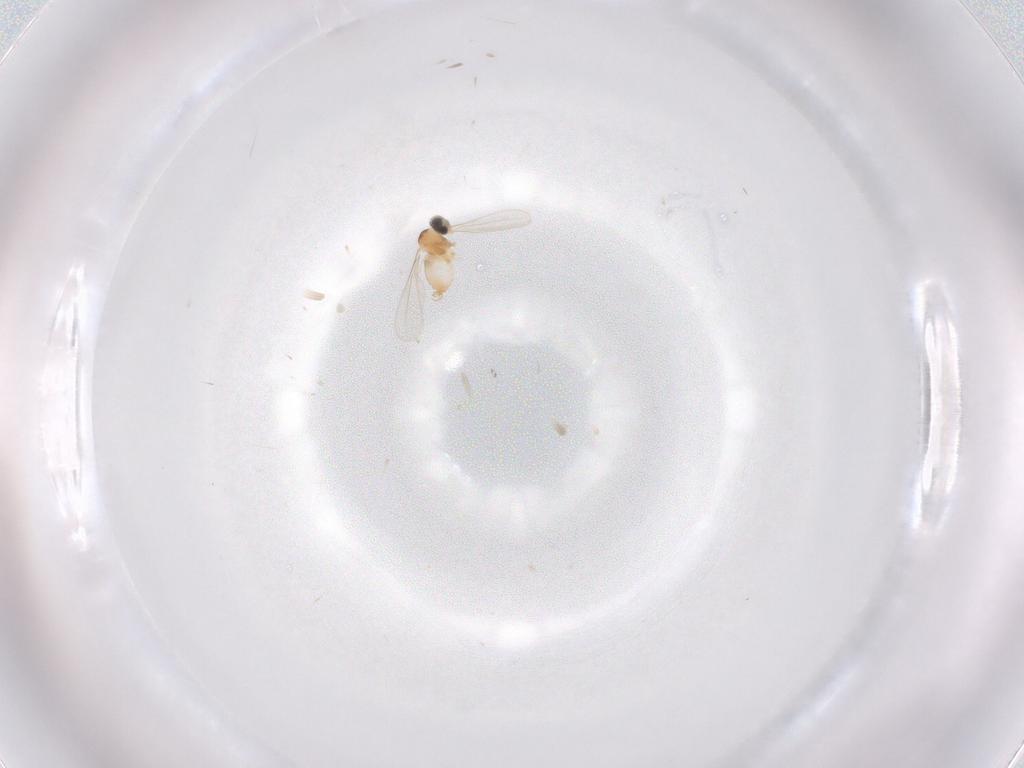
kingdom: Animalia
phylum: Arthropoda
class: Insecta
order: Diptera
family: Cecidomyiidae
